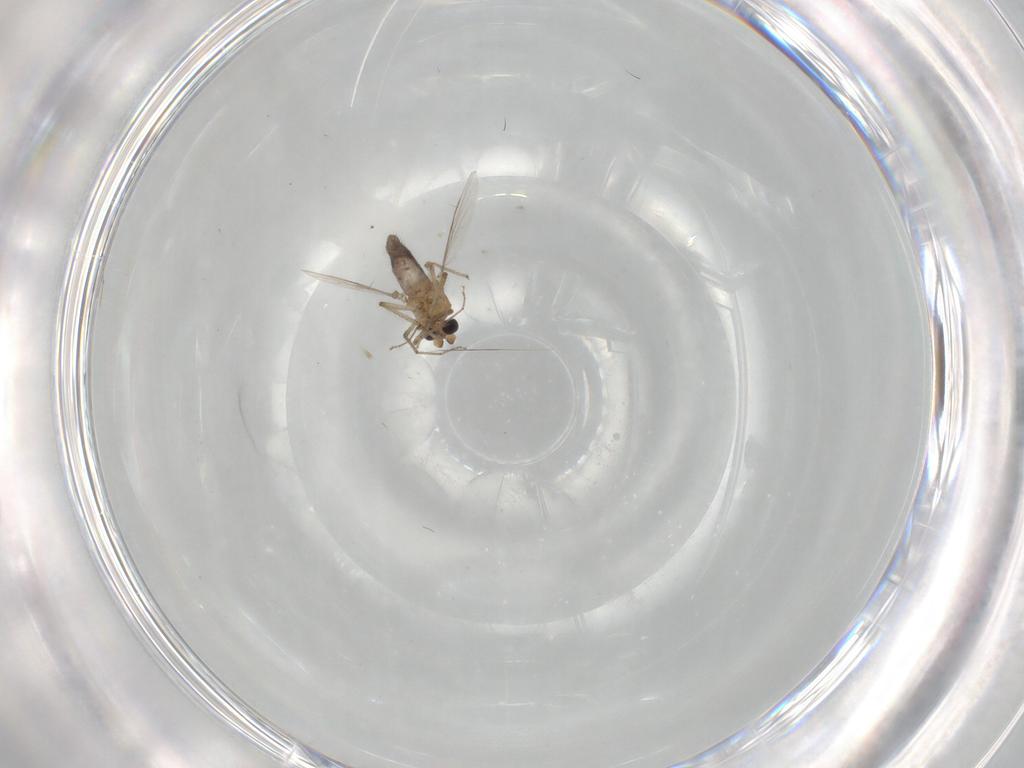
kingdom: Animalia
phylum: Arthropoda
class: Insecta
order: Diptera
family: Ceratopogonidae
